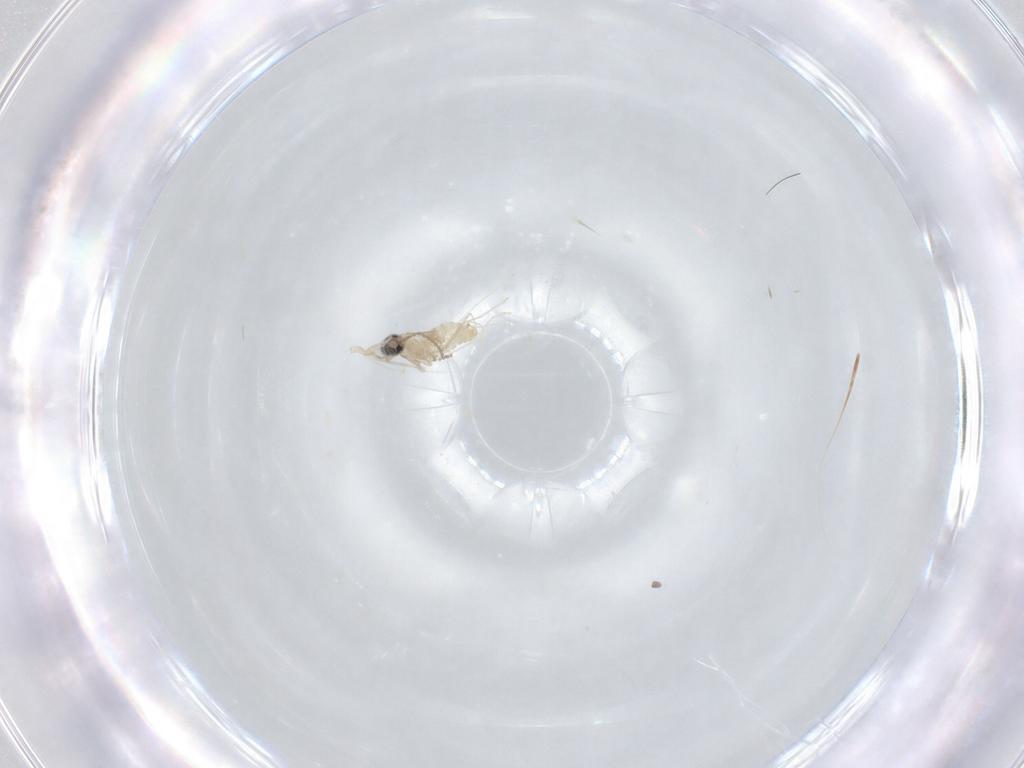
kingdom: Animalia
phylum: Arthropoda
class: Insecta
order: Diptera
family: Cecidomyiidae
